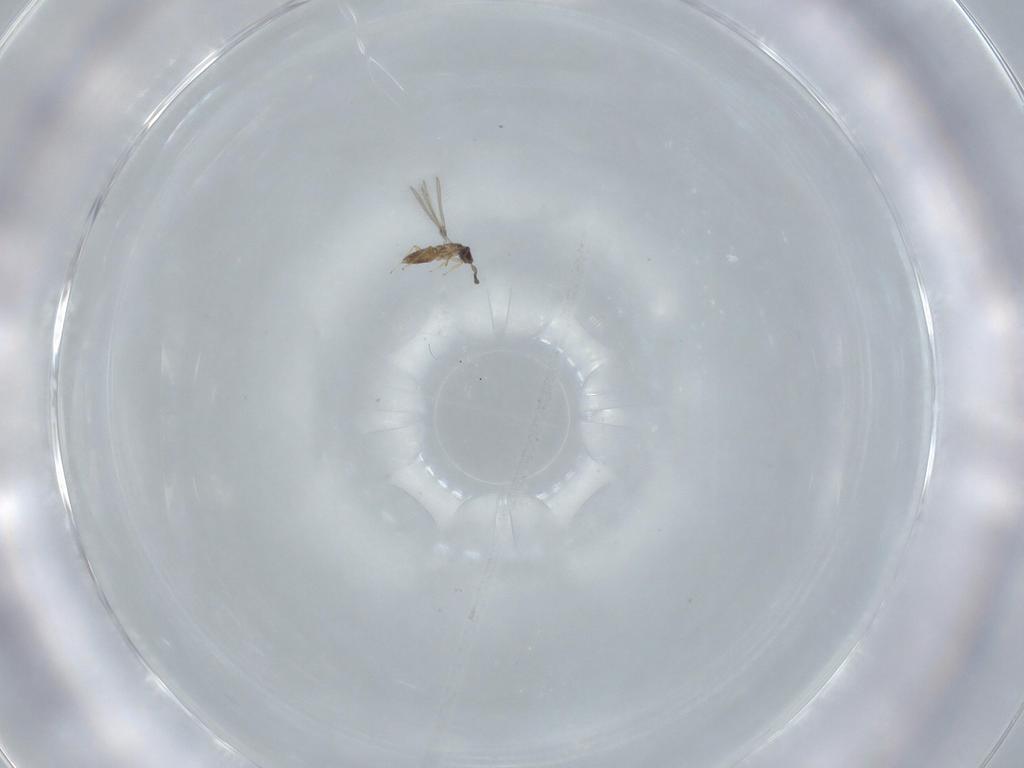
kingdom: Animalia
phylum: Arthropoda
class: Insecta
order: Hymenoptera
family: Mymaridae
